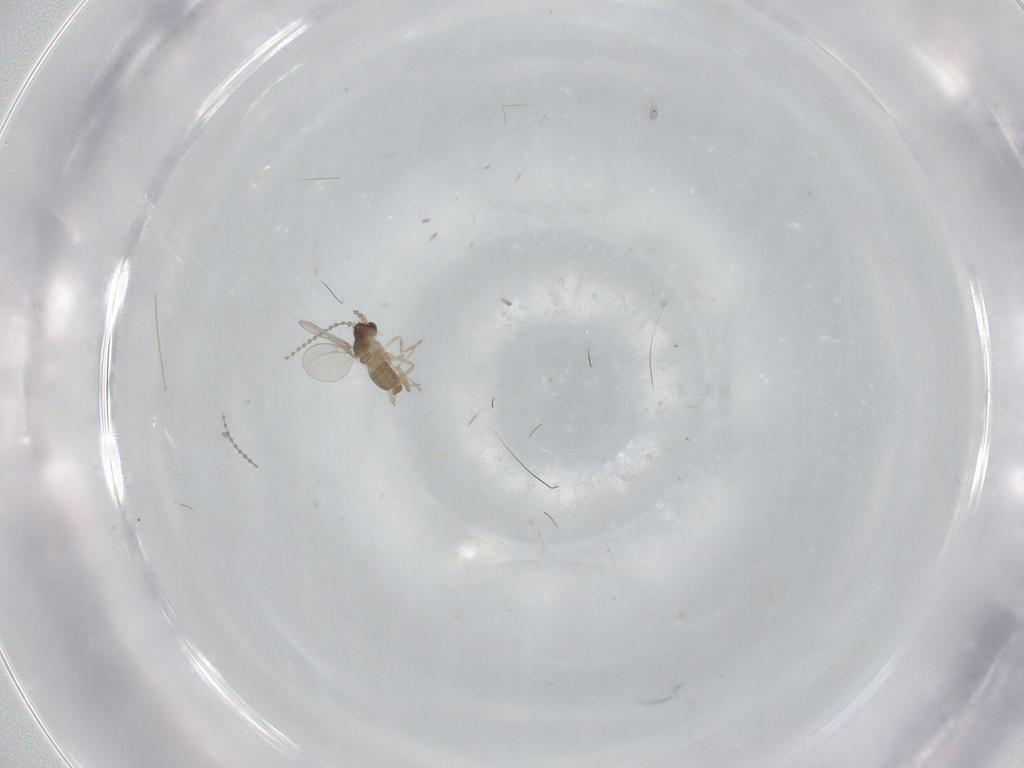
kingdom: Animalia
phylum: Arthropoda
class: Insecta
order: Diptera
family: Cecidomyiidae
